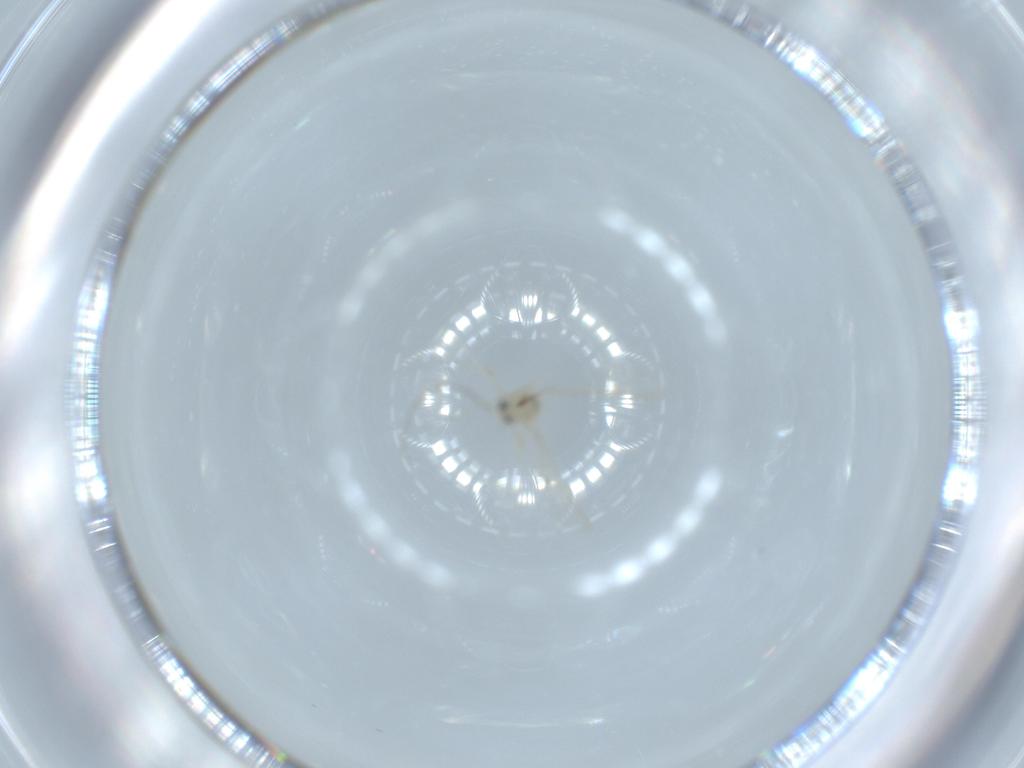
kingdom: Animalia
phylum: Arthropoda
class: Insecta
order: Diptera
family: Cecidomyiidae
